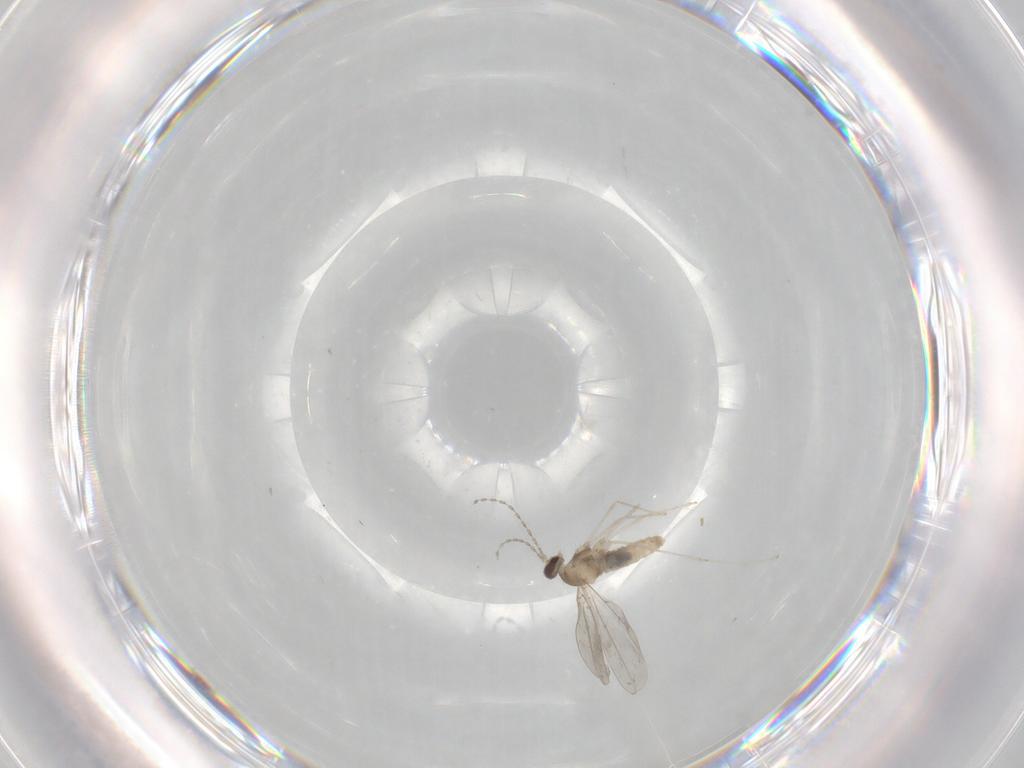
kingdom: Animalia
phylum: Arthropoda
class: Insecta
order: Diptera
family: Cecidomyiidae
